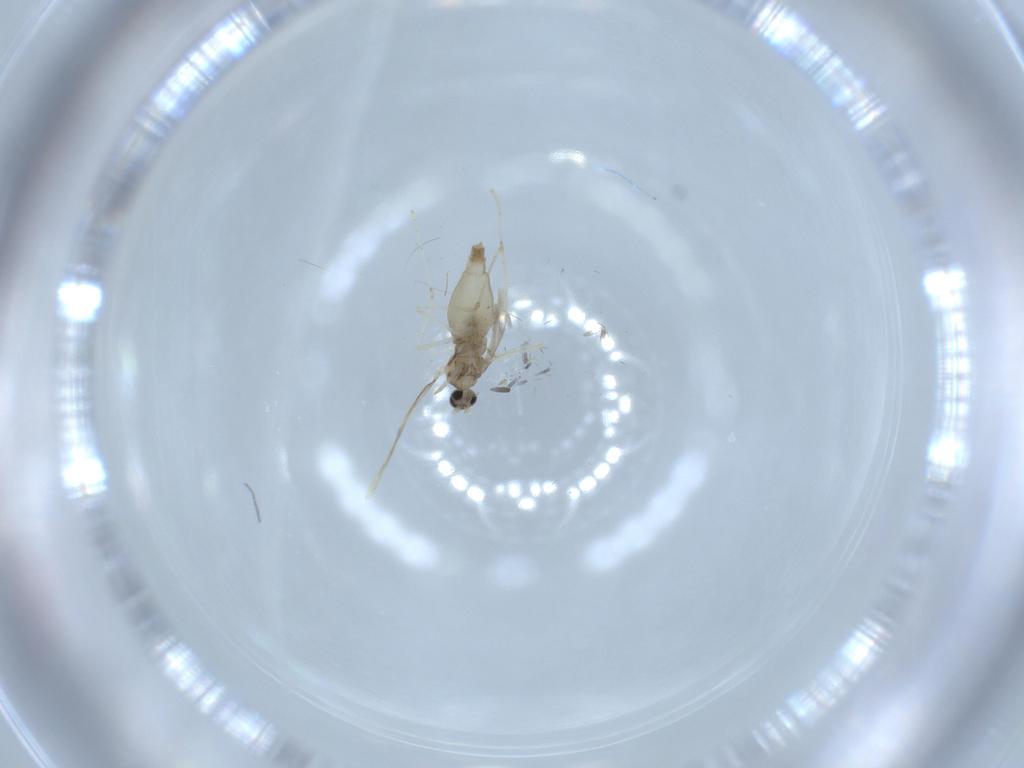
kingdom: Animalia
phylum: Arthropoda
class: Insecta
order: Diptera
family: Cecidomyiidae
